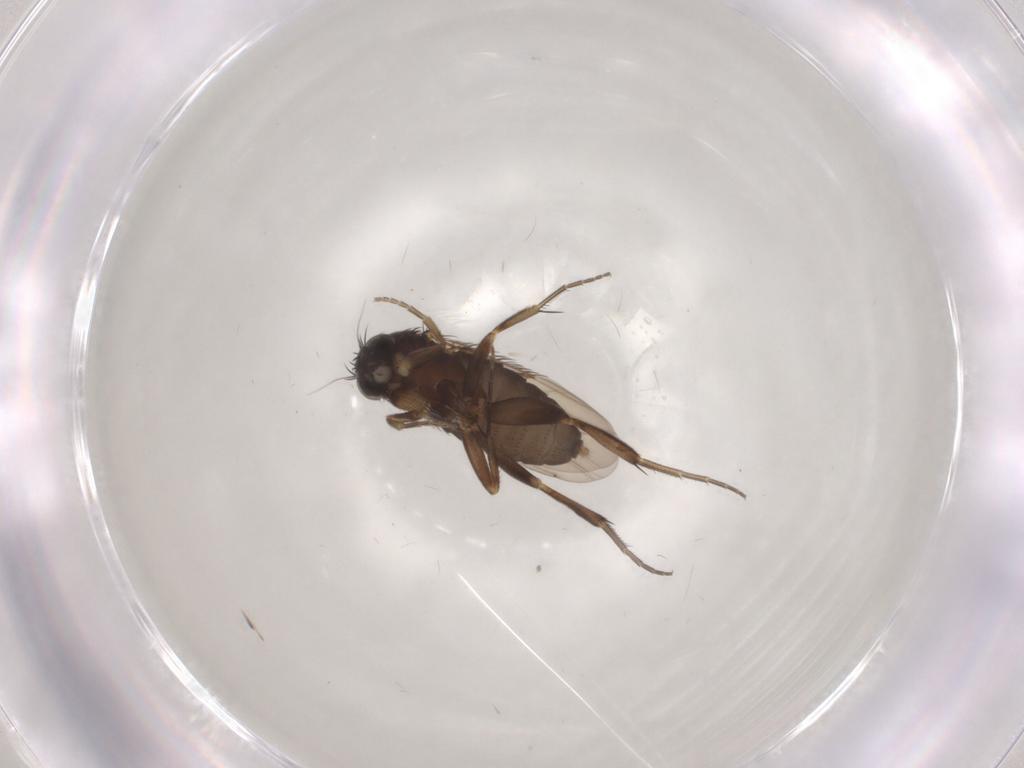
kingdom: Animalia
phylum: Arthropoda
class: Insecta
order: Diptera
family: Phoridae
